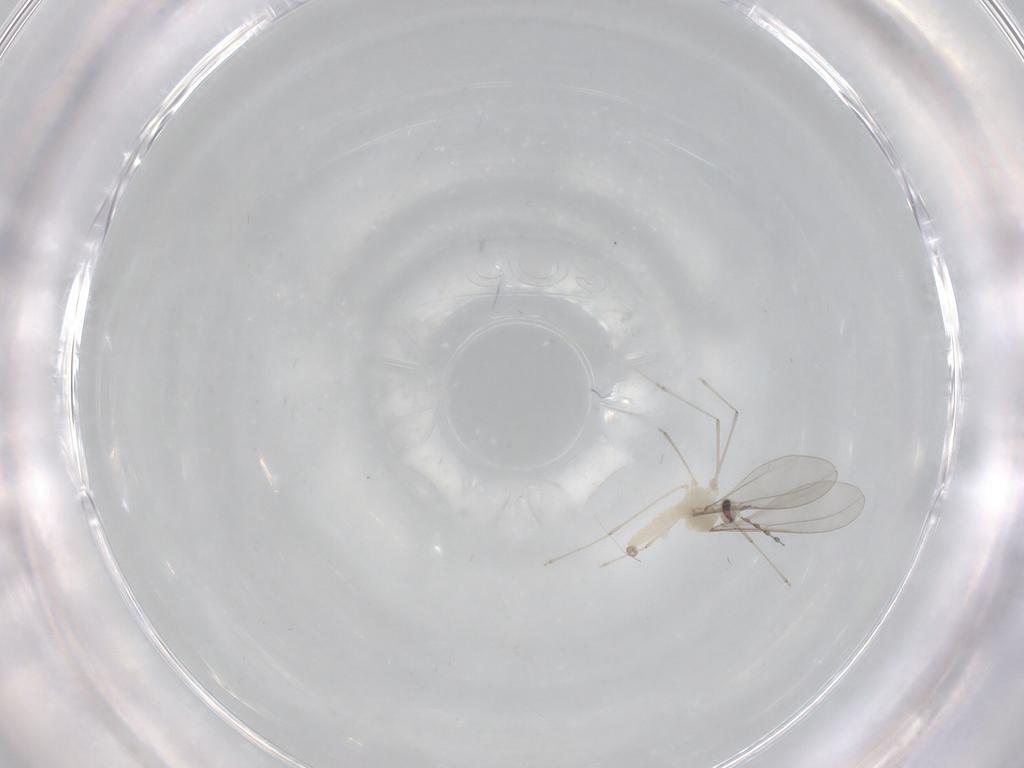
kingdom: Animalia
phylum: Arthropoda
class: Insecta
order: Diptera
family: Cecidomyiidae
